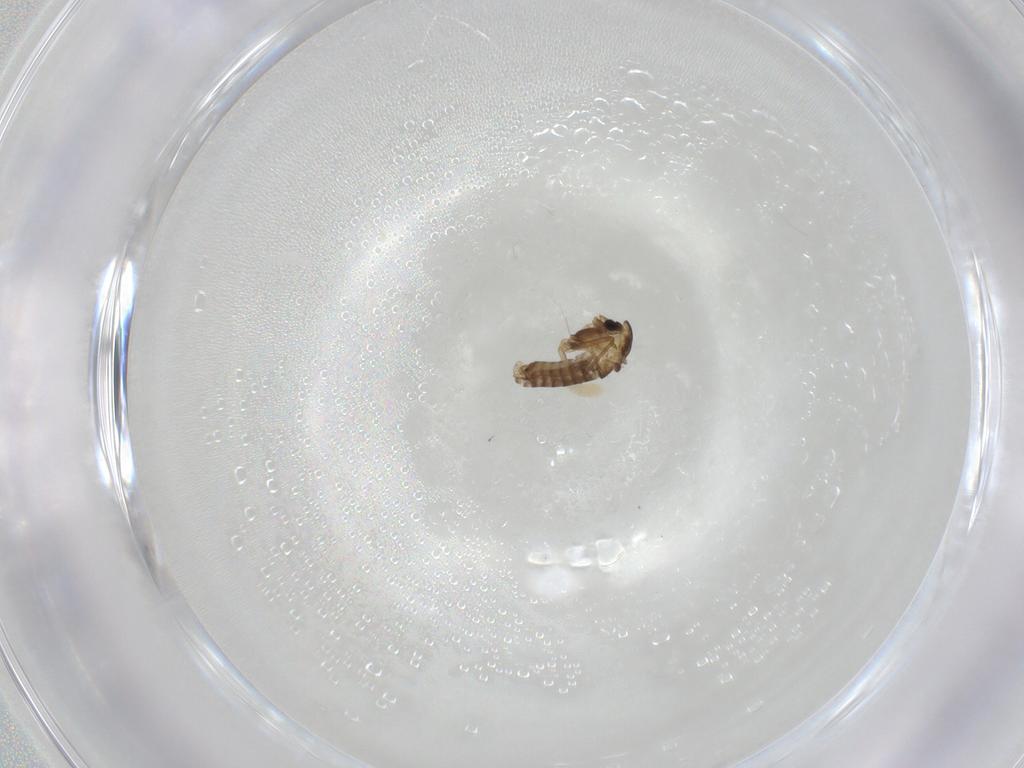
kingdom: Animalia
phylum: Arthropoda
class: Insecta
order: Diptera
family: Chironomidae
